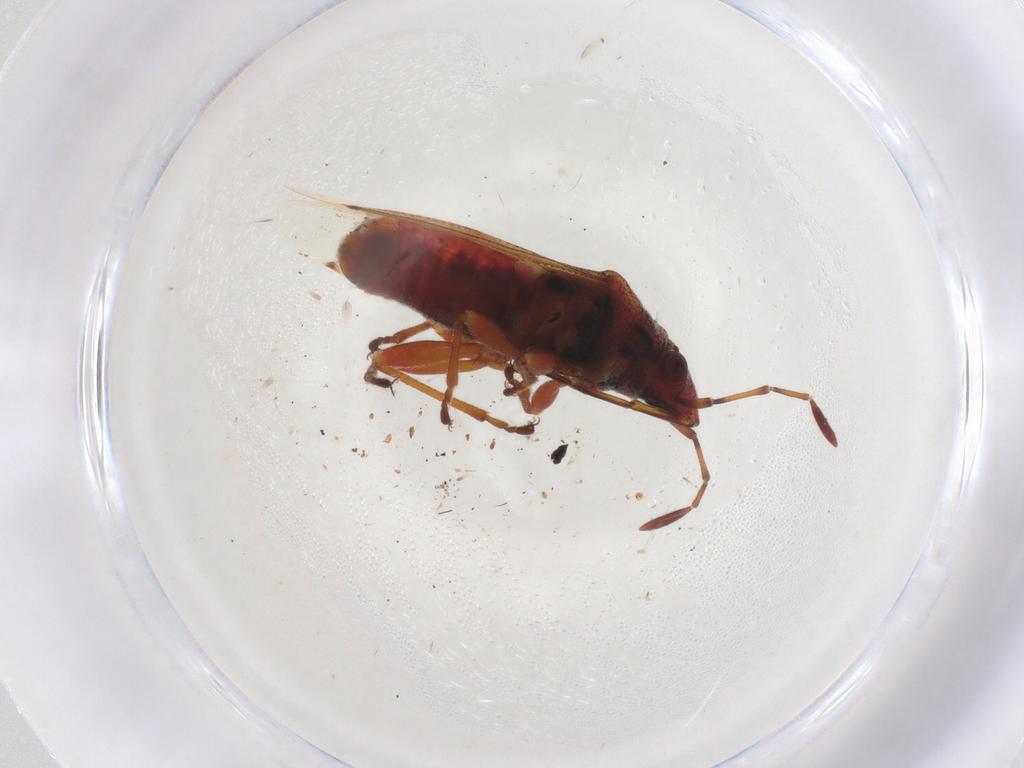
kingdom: Animalia
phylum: Arthropoda
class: Insecta
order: Hemiptera
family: Lygaeidae
